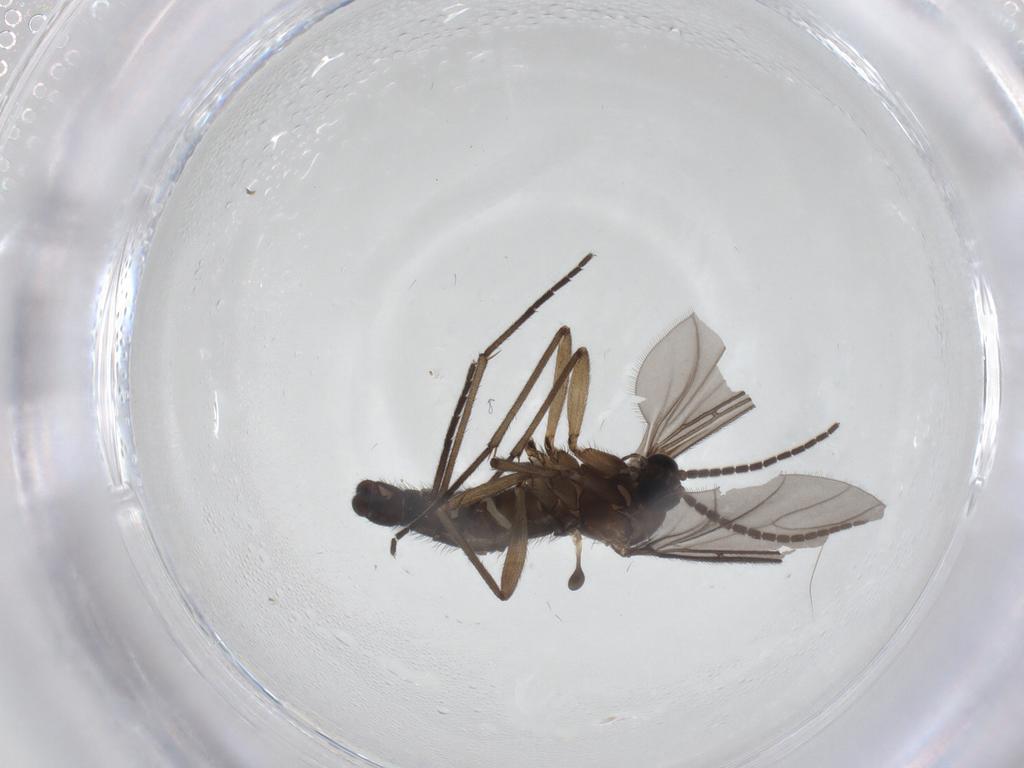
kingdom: Animalia
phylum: Arthropoda
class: Insecta
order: Diptera
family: Sciaridae
